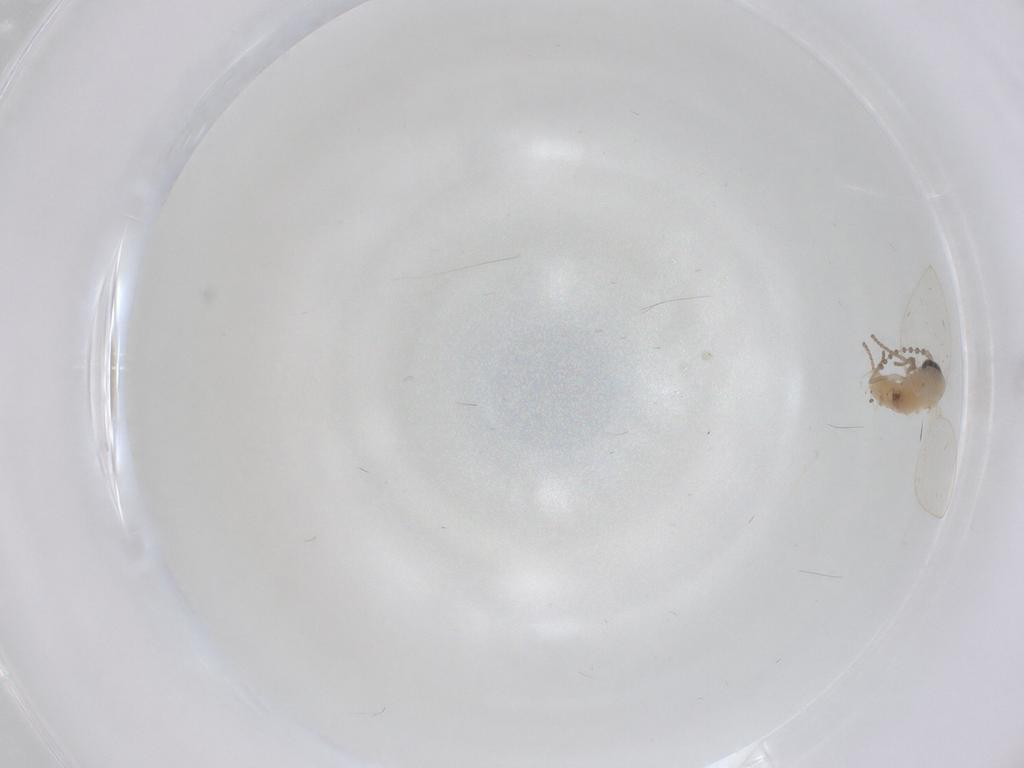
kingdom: Animalia
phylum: Arthropoda
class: Insecta
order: Diptera
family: Psychodidae
